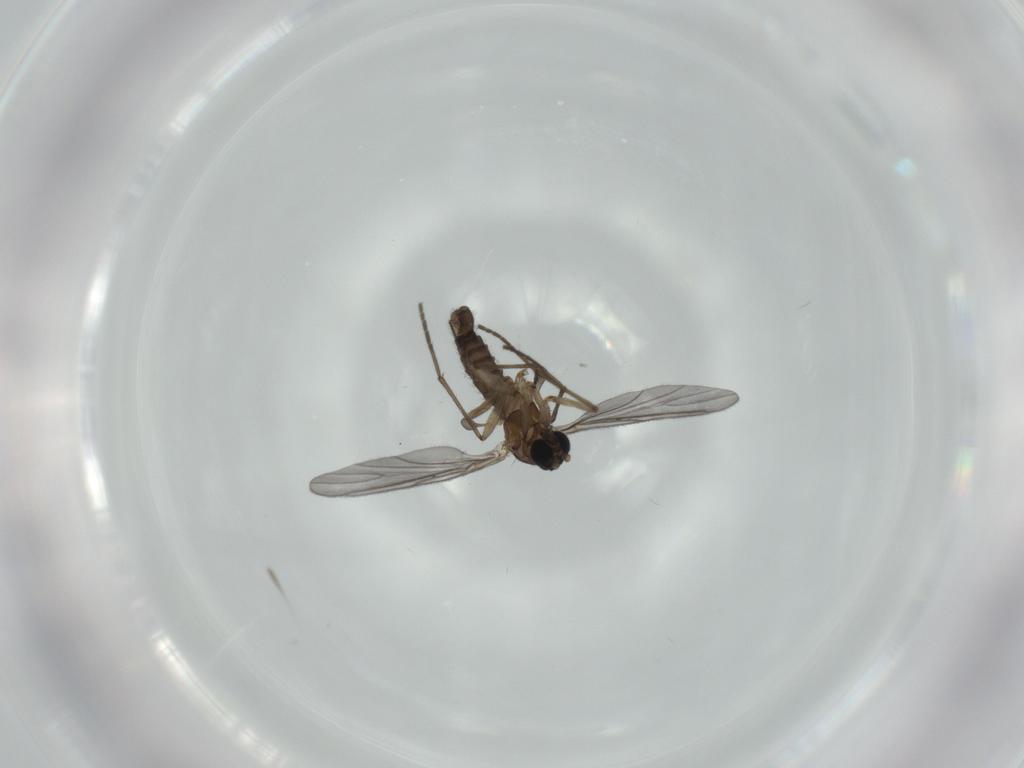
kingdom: Animalia
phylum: Arthropoda
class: Insecta
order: Diptera
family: Sciaridae
